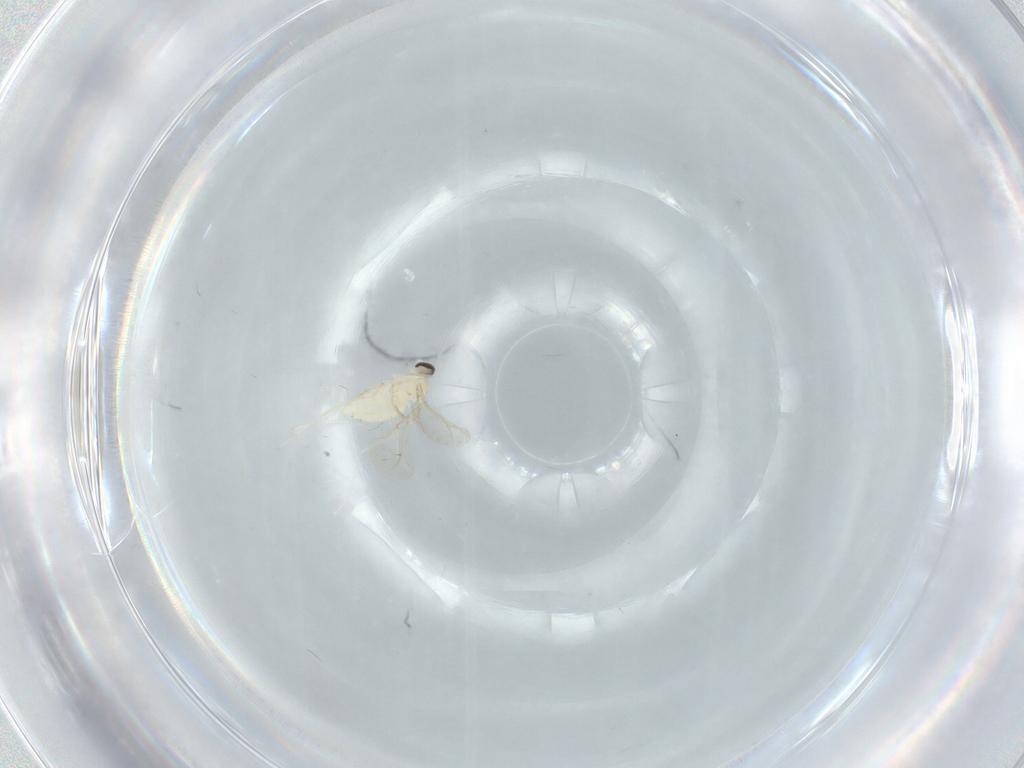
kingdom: Animalia
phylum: Arthropoda
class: Insecta
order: Diptera
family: Cecidomyiidae
